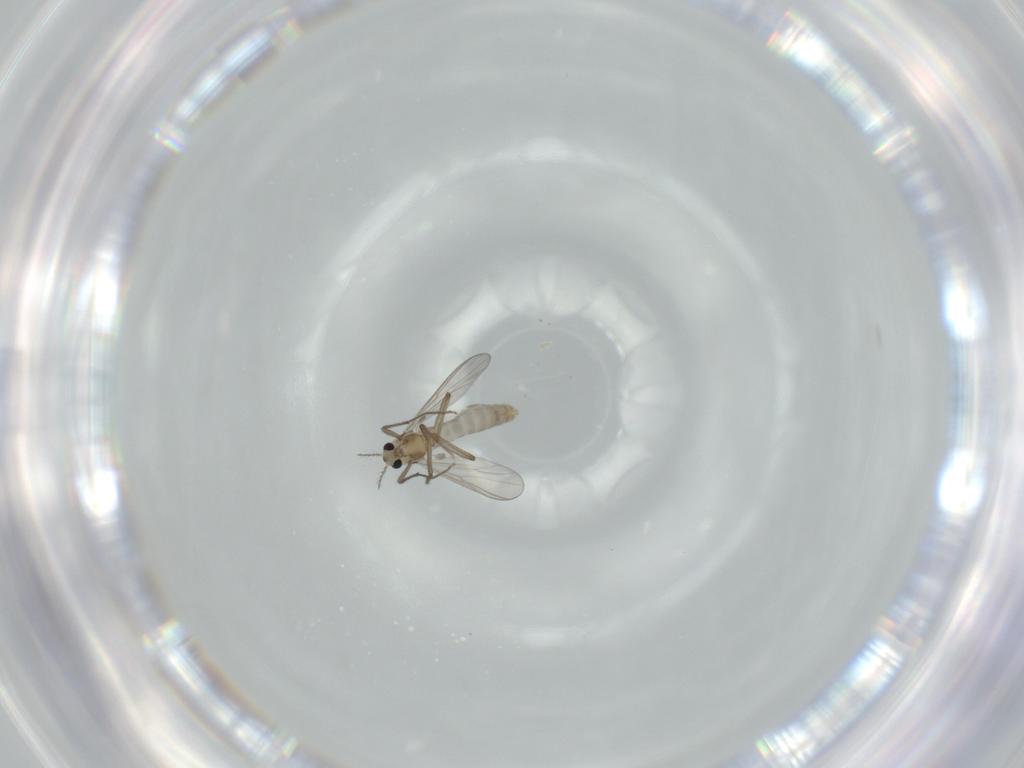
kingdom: Animalia
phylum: Arthropoda
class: Insecta
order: Diptera
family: Chironomidae
